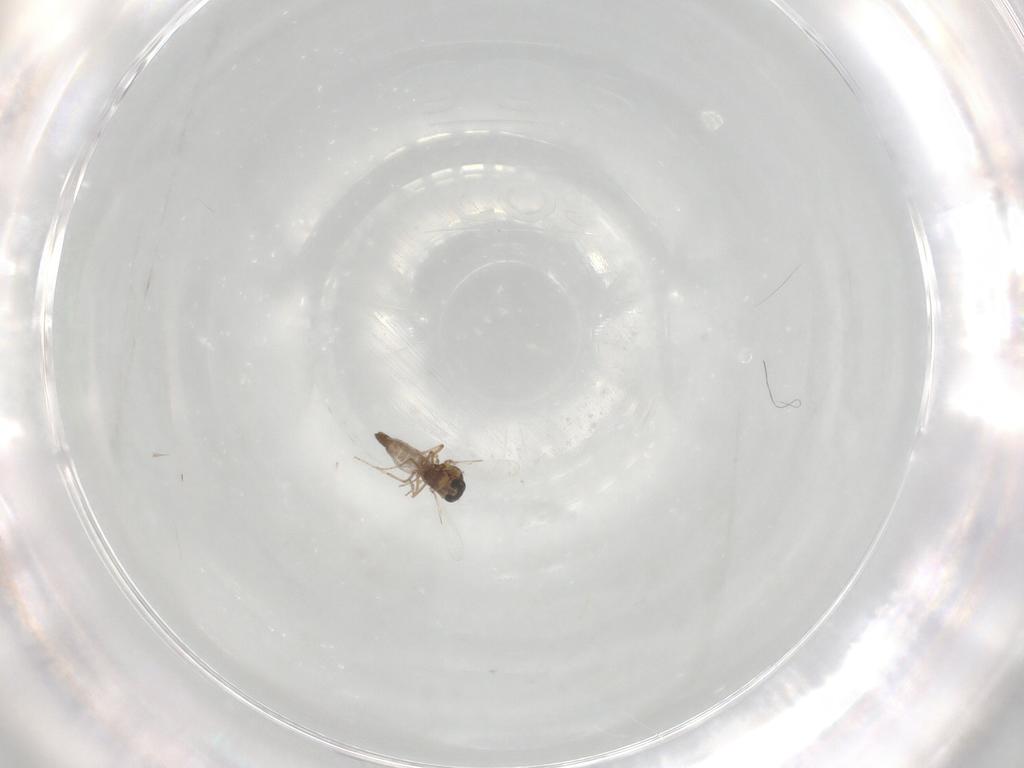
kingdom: Animalia
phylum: Arthropoda
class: Insecta
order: Diptera
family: Ceratopogonidae
